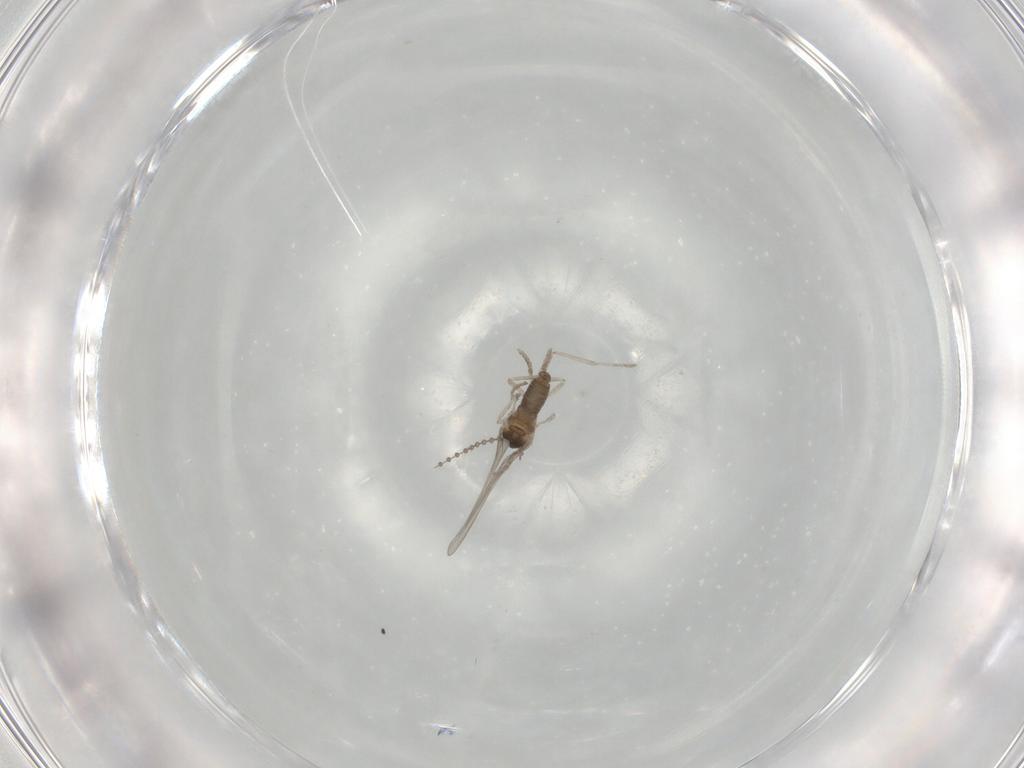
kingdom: Animalia
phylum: Arthropoda
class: Insecta
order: Diptera
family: Cecidomyiidae
